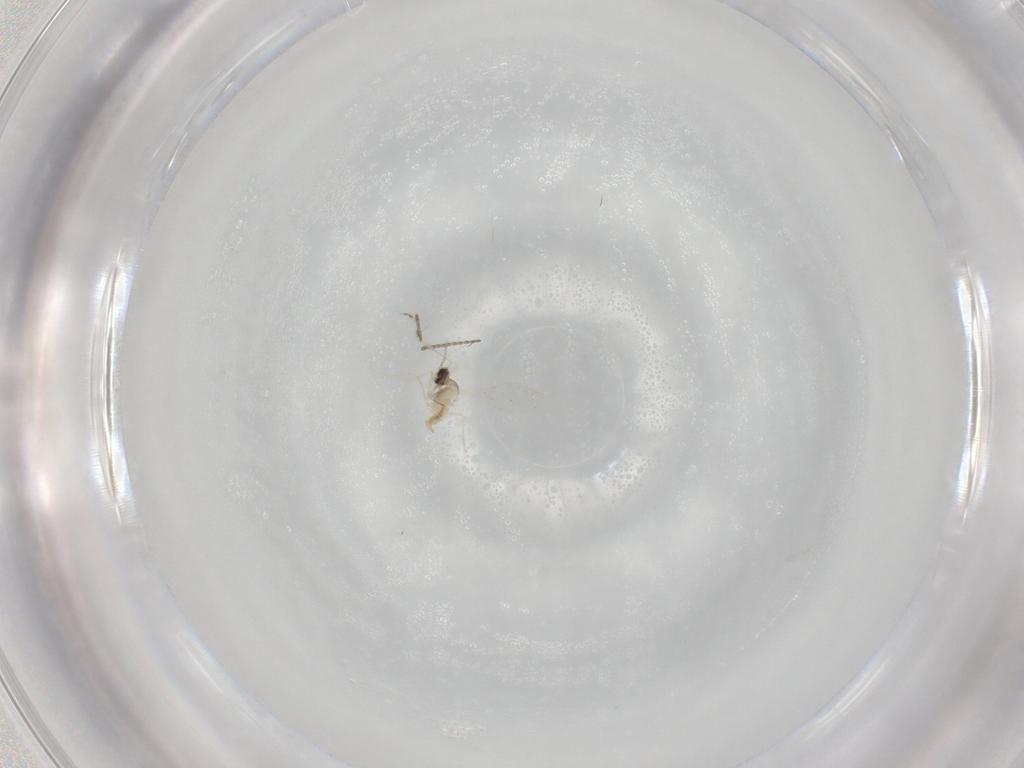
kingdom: Animalia
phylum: Arthropoda
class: Insecta
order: Diptera
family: Cecidomyiidae
